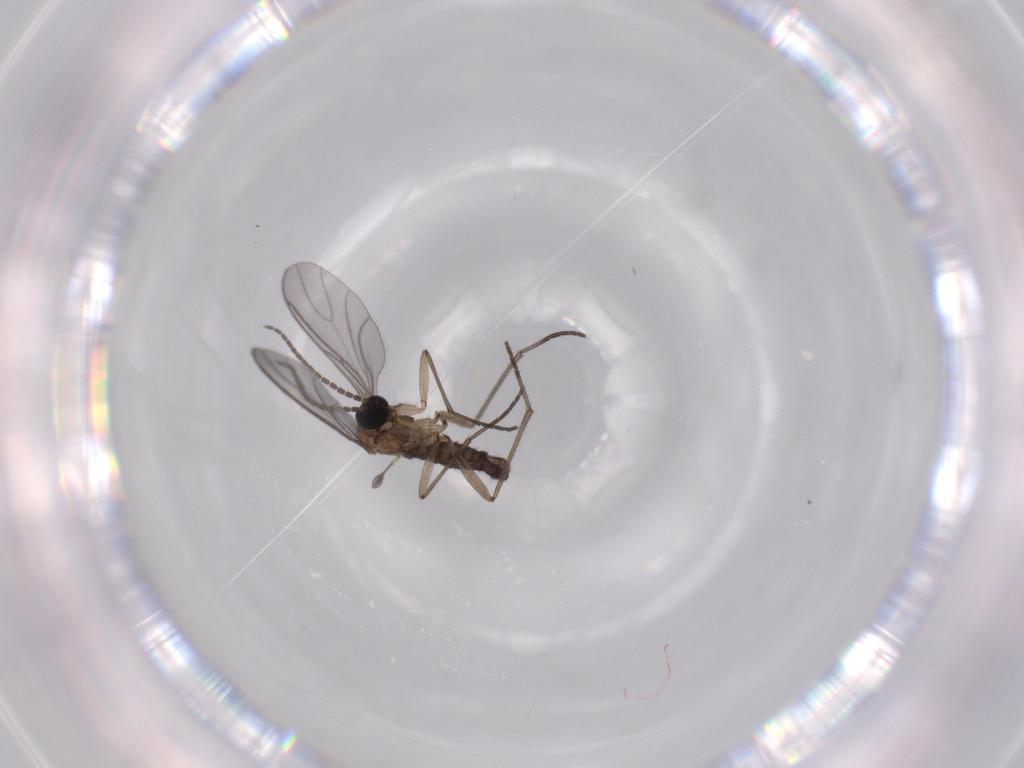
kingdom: Animalia
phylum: Arthropoda
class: Insecta
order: Diptera
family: Sciaridae
